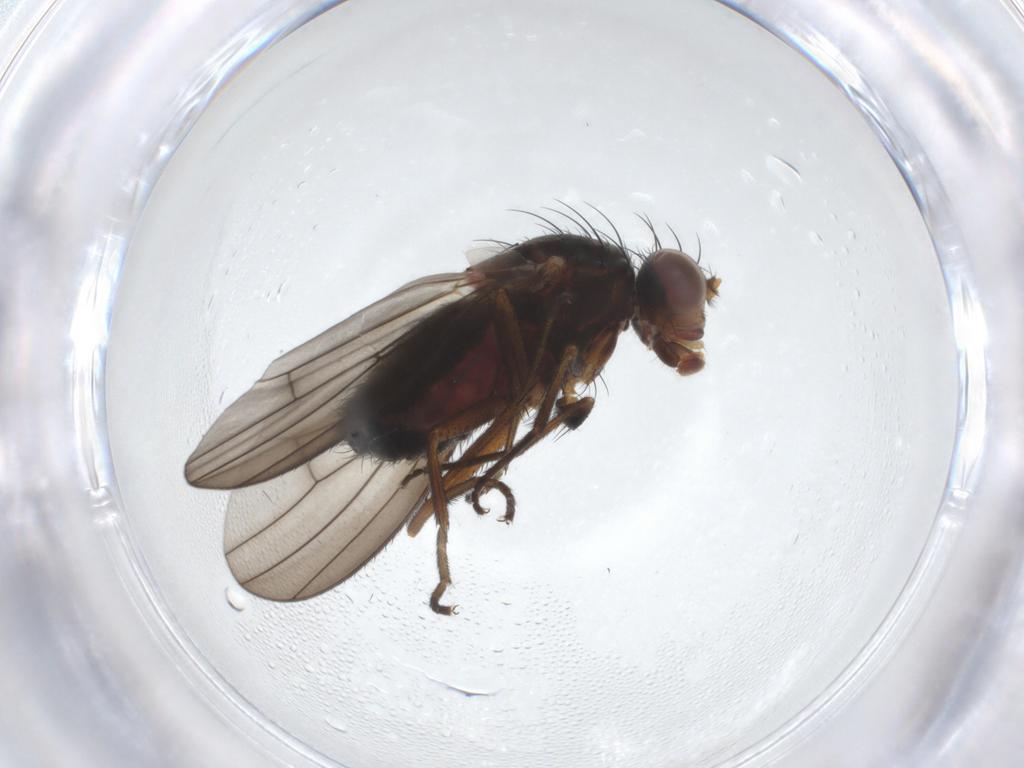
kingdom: Animalia
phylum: Arthropoda
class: Insecta
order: Diptera
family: Heleomyzidae
